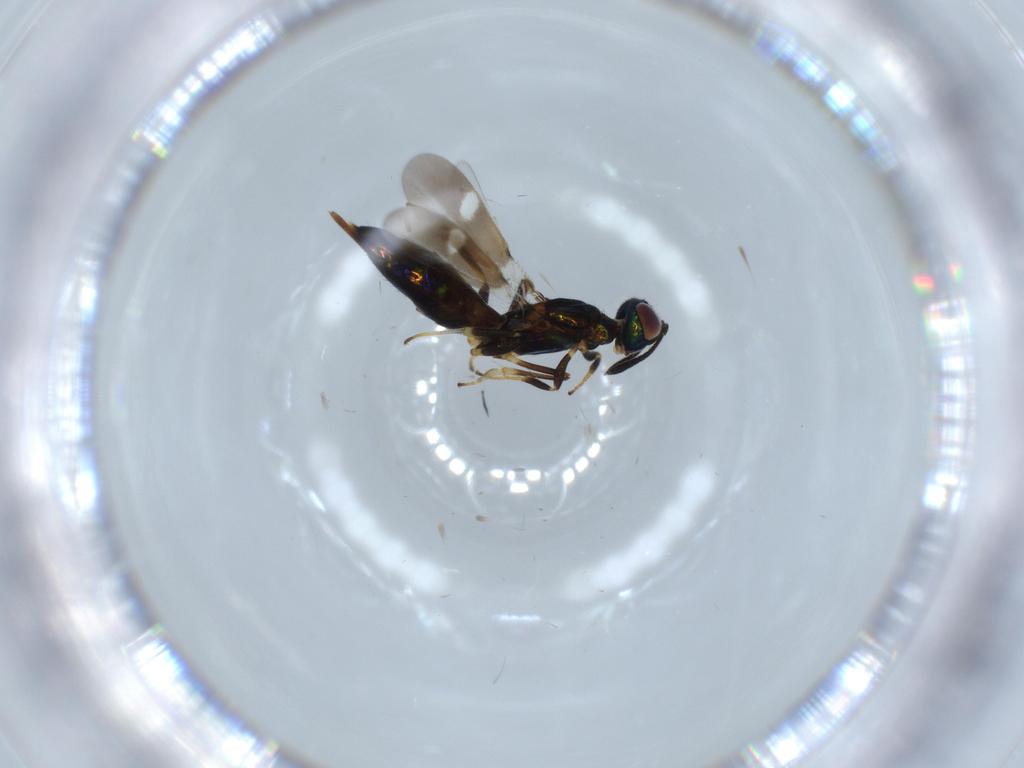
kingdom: Animalia
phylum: Arthropoda
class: Insecta
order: Hymenoptera
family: Eupelmidae
